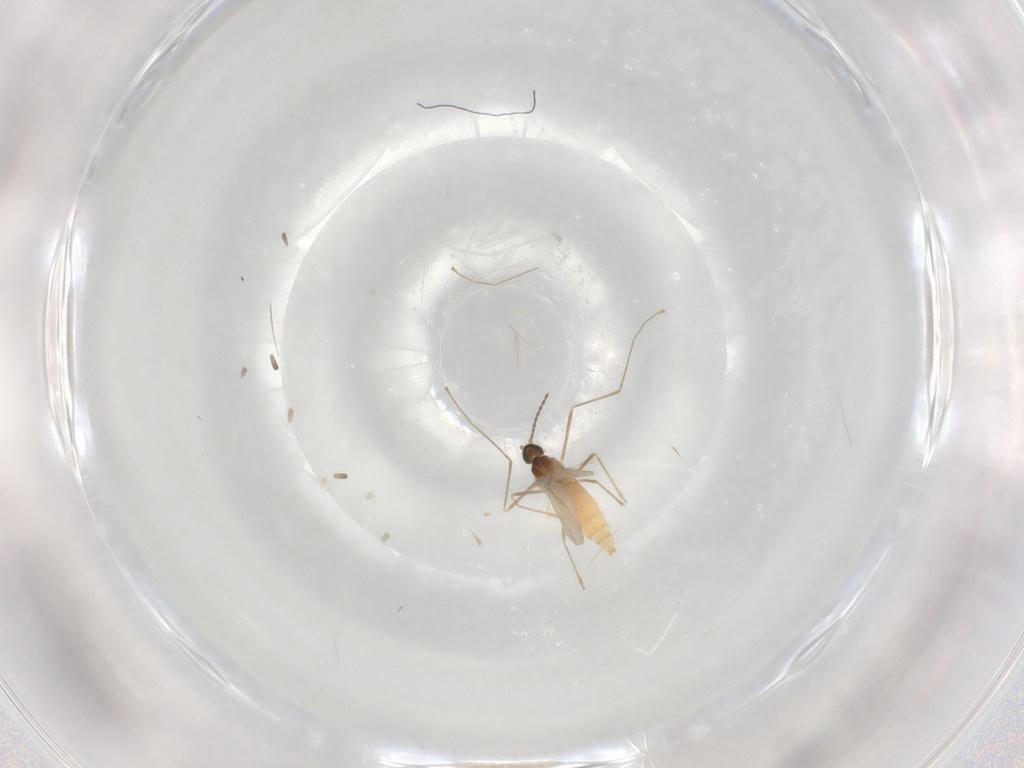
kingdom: Animalia
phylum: Arthropoda
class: Insecta
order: Diptera
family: Cecidomyiidae
